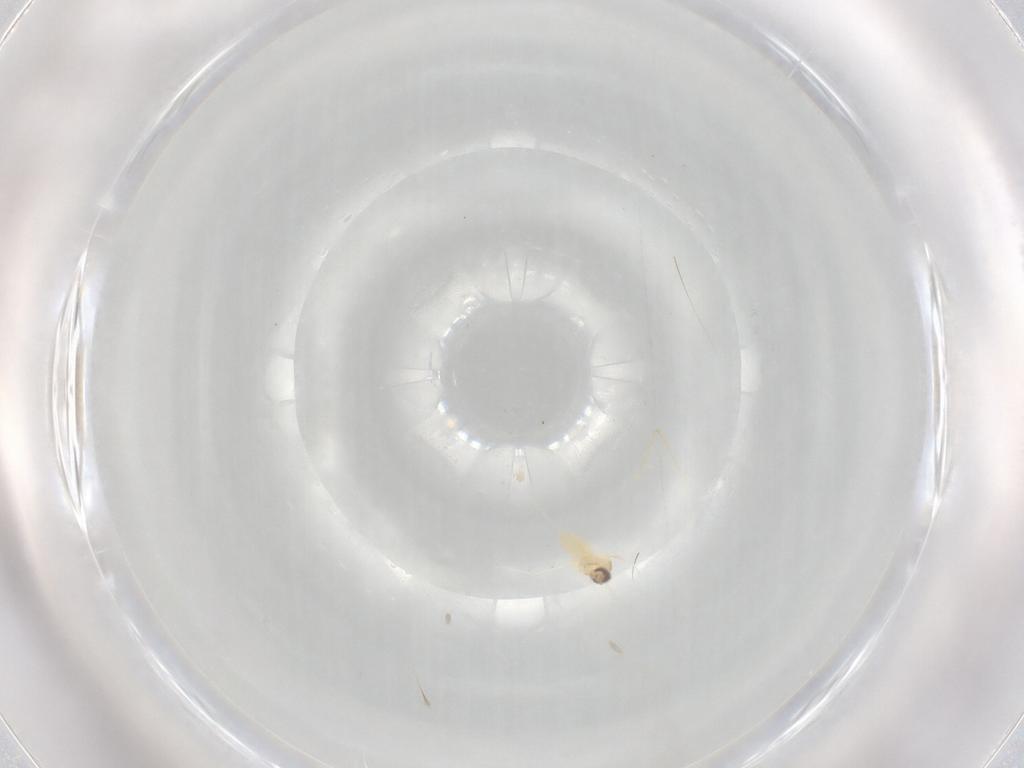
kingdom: Animalia
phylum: Arthropoda
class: Insecta
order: Diptera
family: Ceratopogonidae
